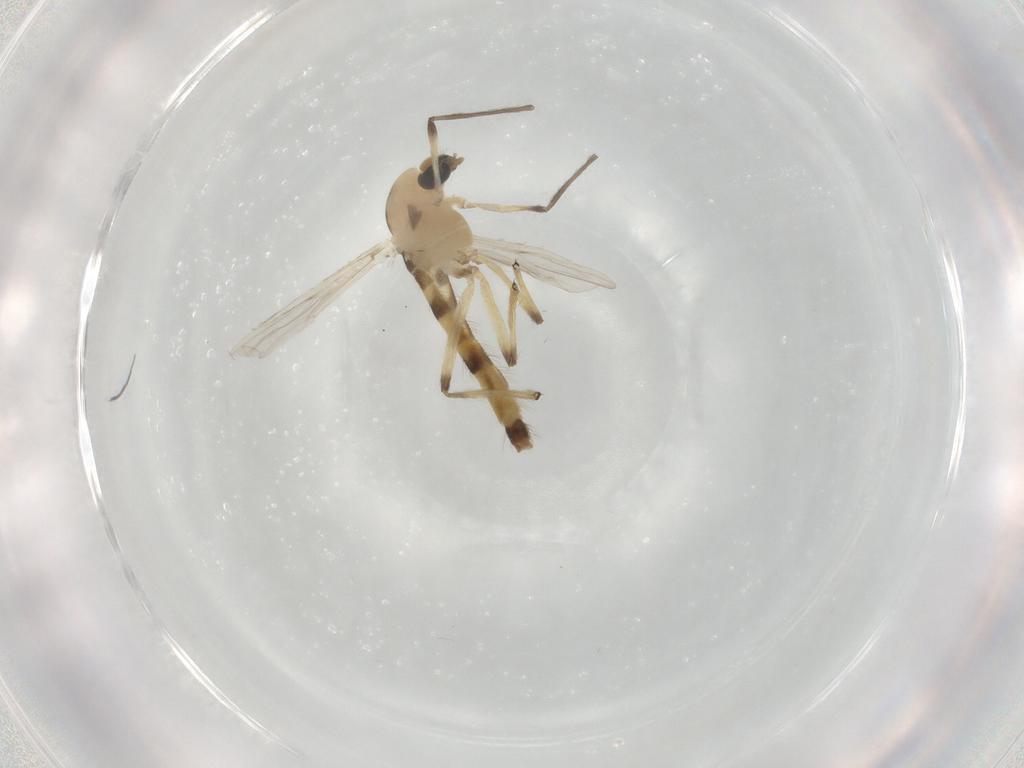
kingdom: Animalia
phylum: Arthropoda
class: Insecta
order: Diptera
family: Chironomidae
